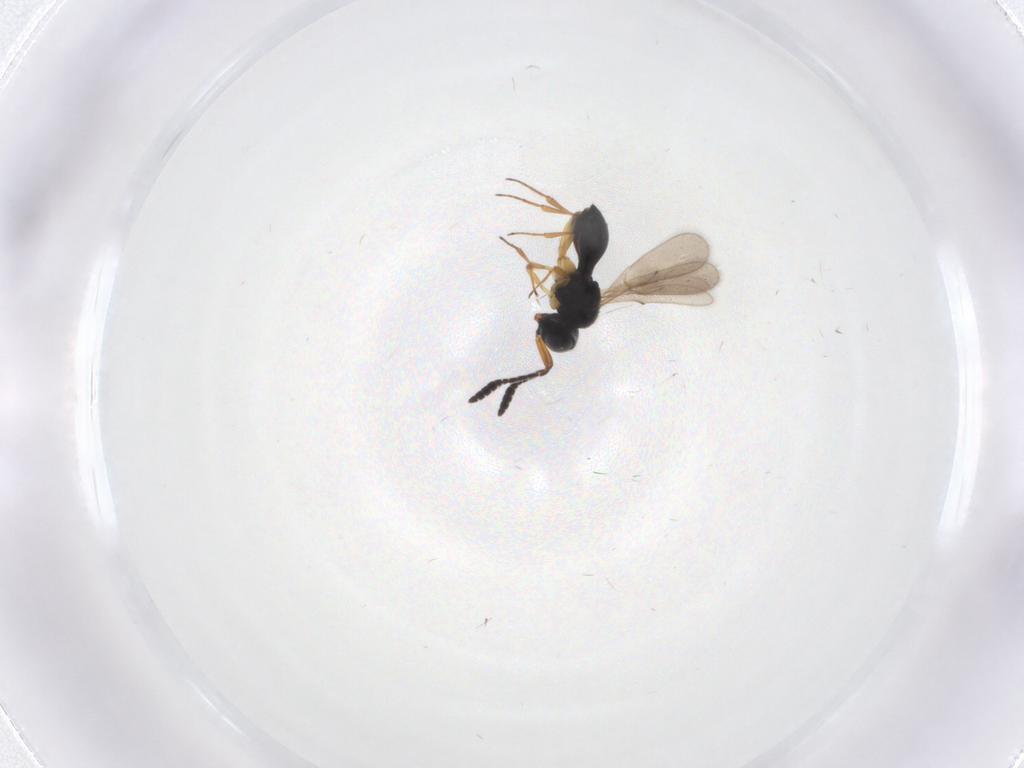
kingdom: Animalia
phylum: Arthropoda
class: Insecta
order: Hymenoptera
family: Scelionidae
